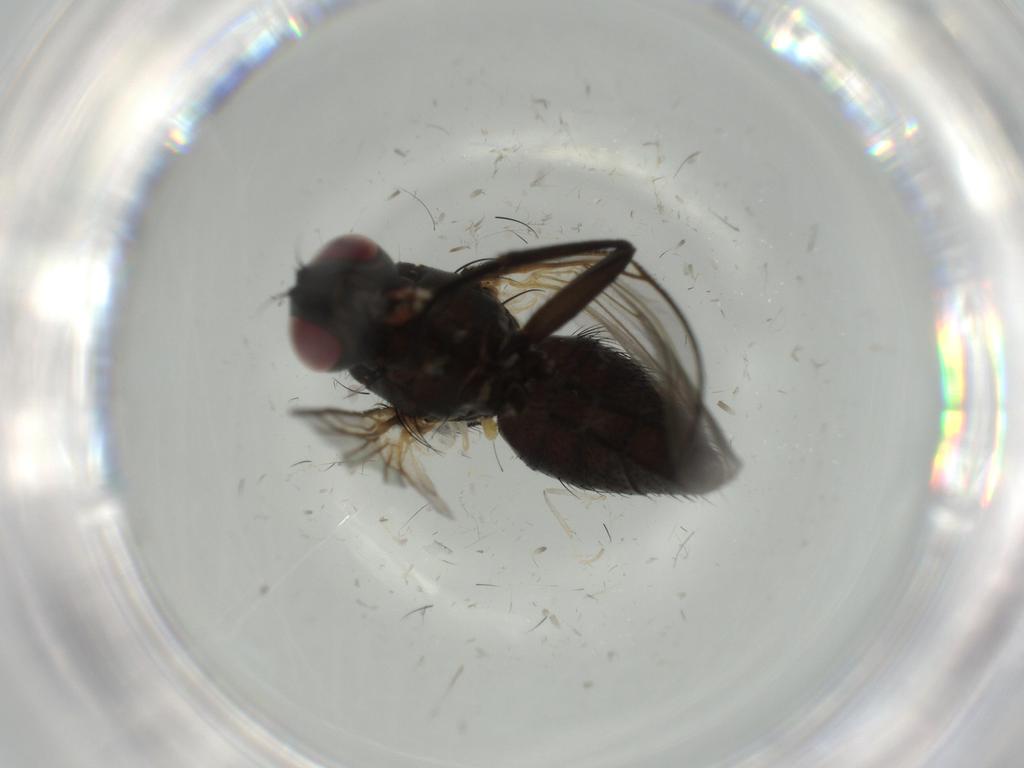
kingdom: Animalia
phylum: Arthropoda
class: Insecta
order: Diptera
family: Muscidae
